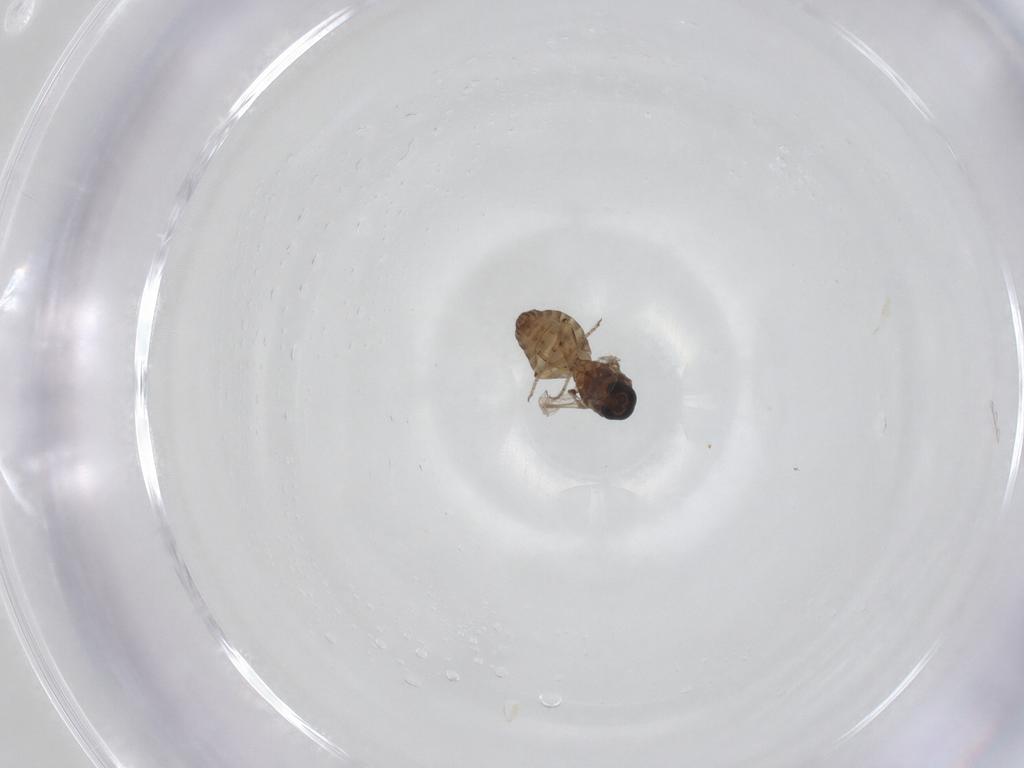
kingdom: Animalia
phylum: Arthropoda
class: Insecta
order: Diptera
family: Ceratopogonidae
